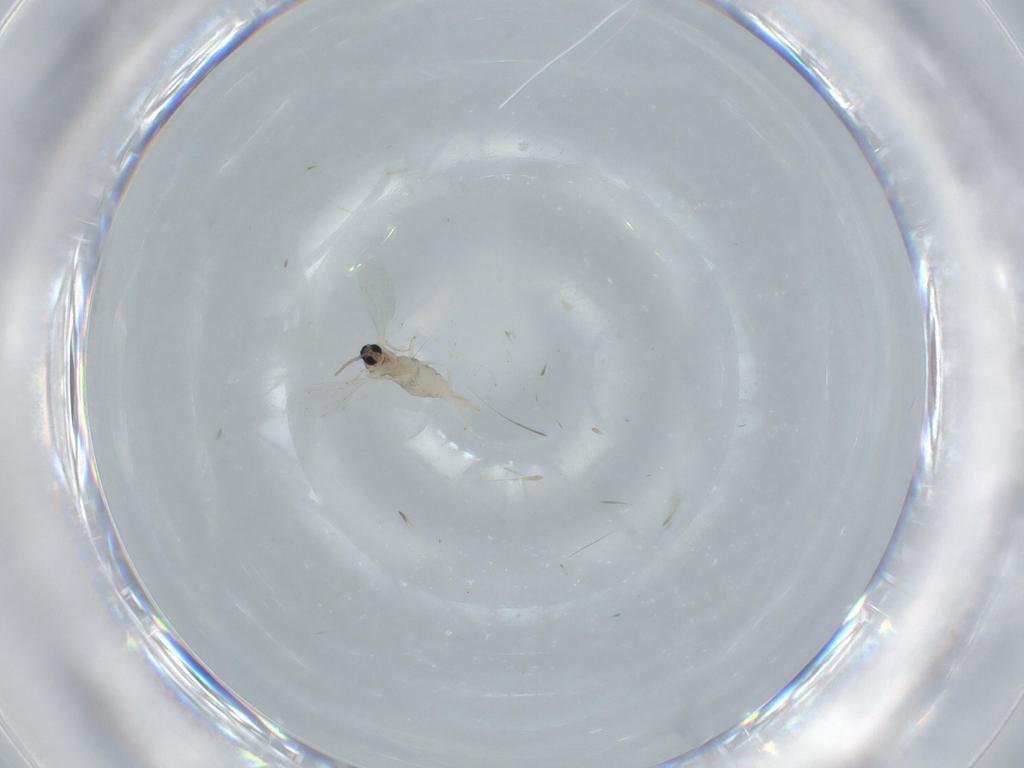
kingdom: Animalia
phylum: Arthropoda
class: Insecta
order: Diptera
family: Cecidomyiidae
